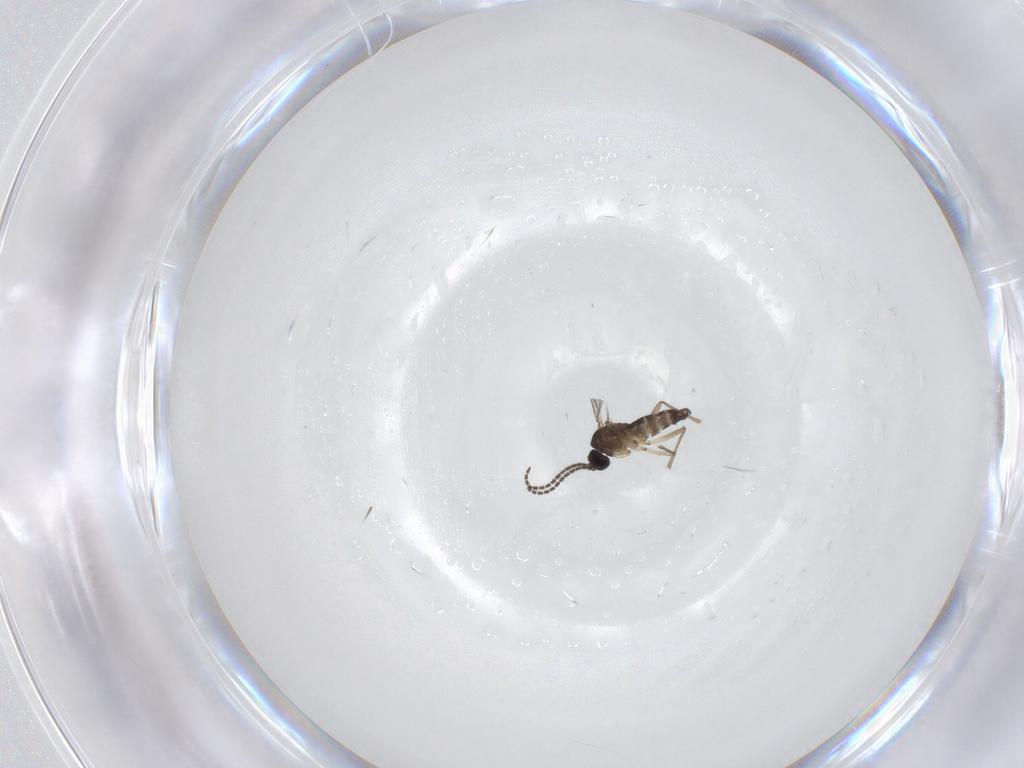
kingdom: Animalia
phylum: Arthropoda
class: Insecta
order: Diptera
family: Sciaridae
